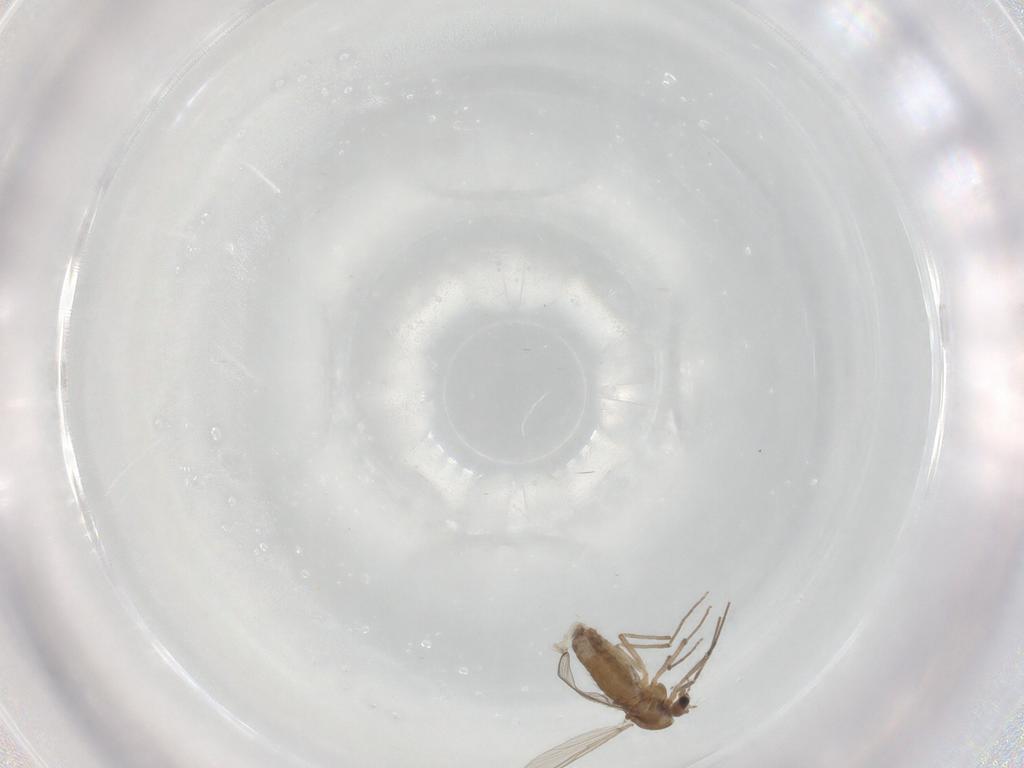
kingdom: Animalia
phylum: Arthropoda
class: Insecta
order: Diptera
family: Chironomidae
